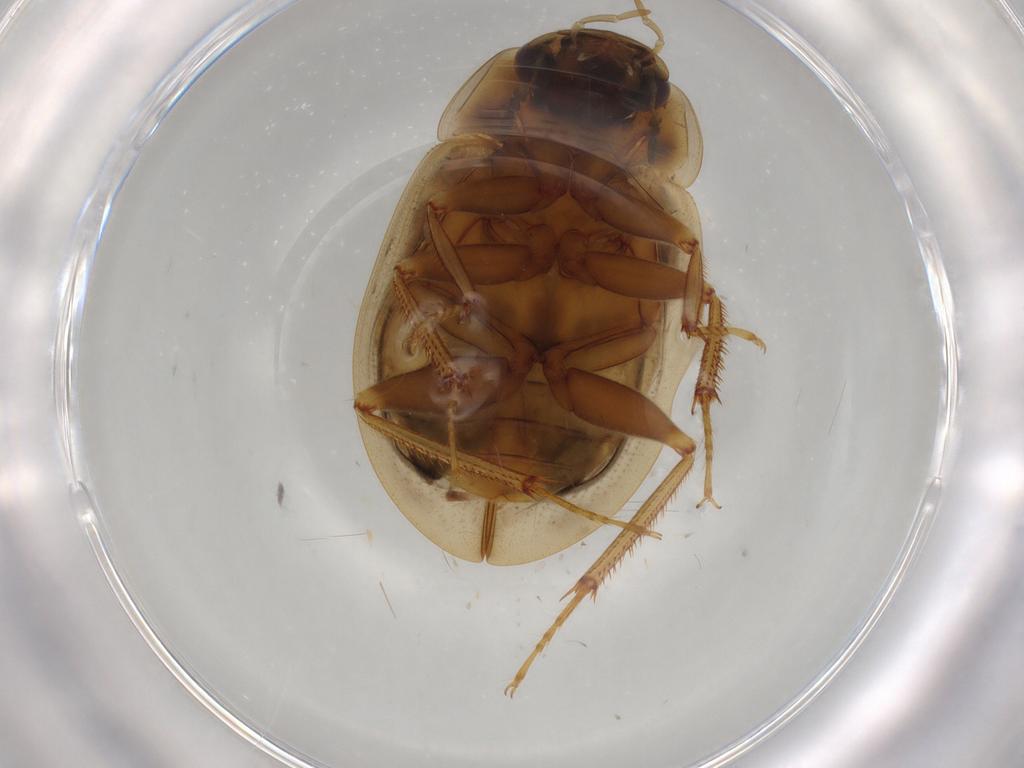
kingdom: Animalia
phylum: Arthropoda
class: Insecta
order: Coleoptera
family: Hydrophilidae
